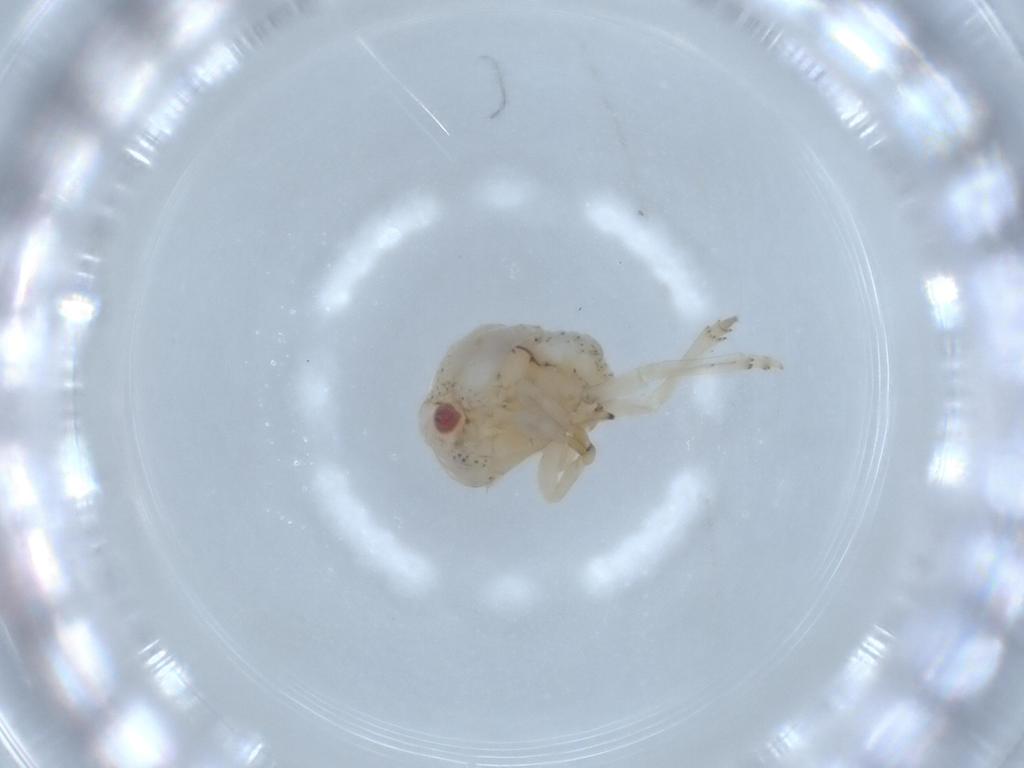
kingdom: Animalia
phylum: Arthropoda
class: Insecta
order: Hemiptera
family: Acanaloniidae
